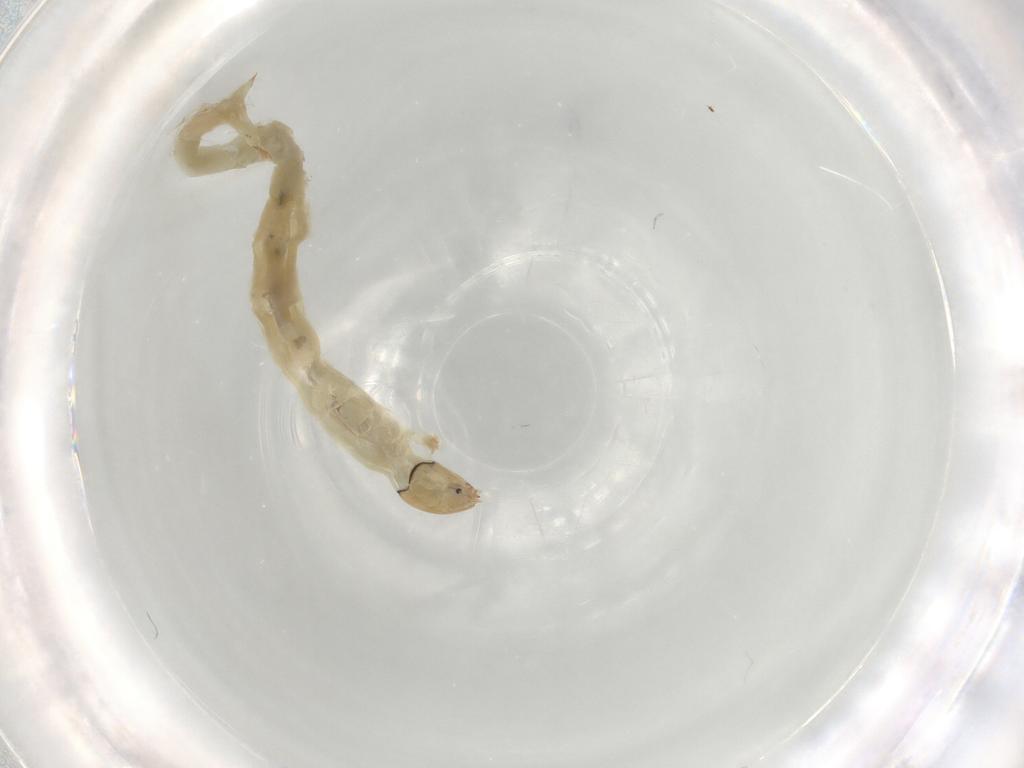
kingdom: Animalia
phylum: Arthropoda
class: Insecta
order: Diptera
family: Chironomidae
